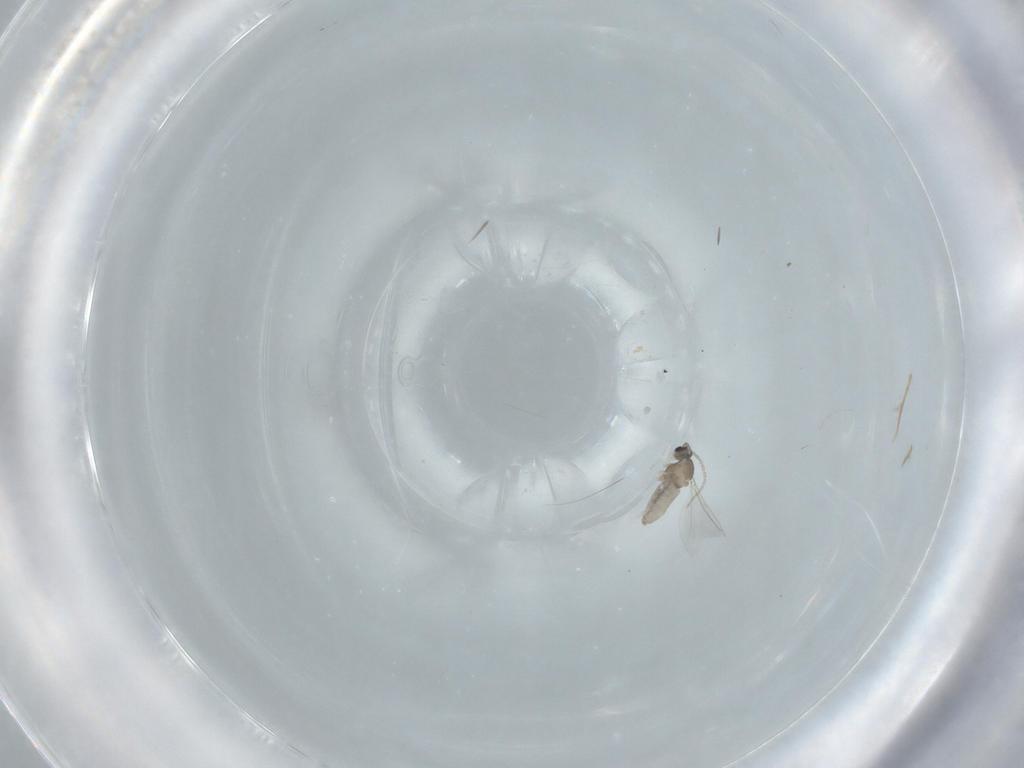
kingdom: Animalia
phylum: Arthropoda
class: Insecta
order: Diptera
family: Cecidomyiidae
